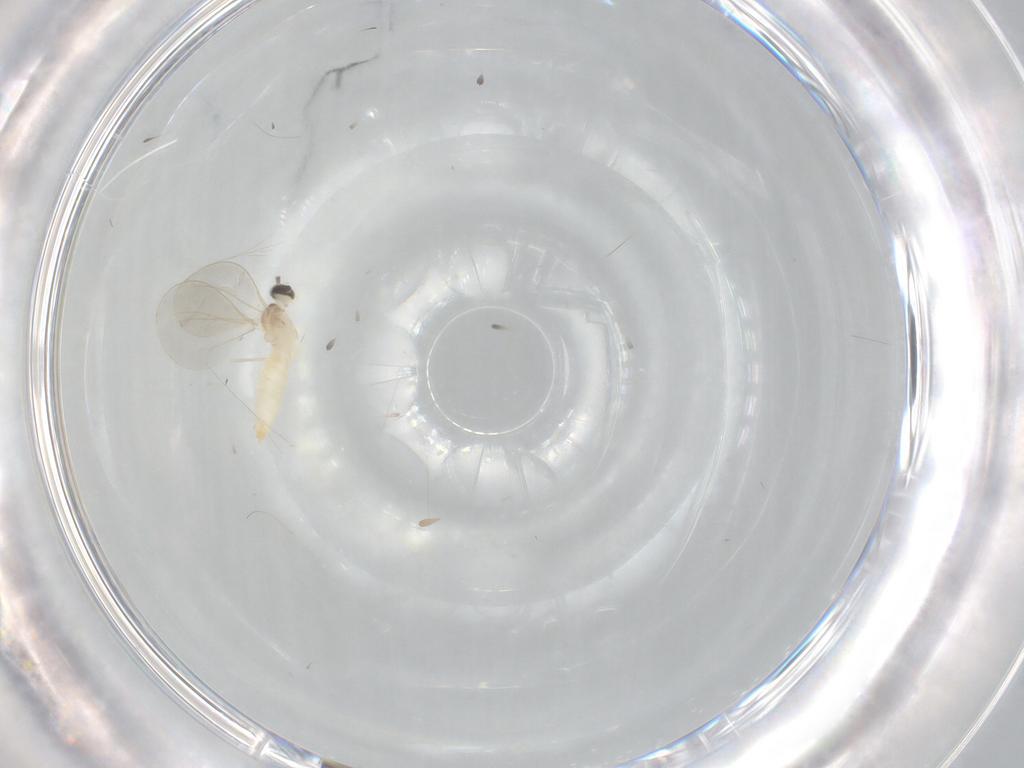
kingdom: Animalia
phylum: Arthropoda
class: Insecta
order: Diptera
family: Cecidomyiidae
